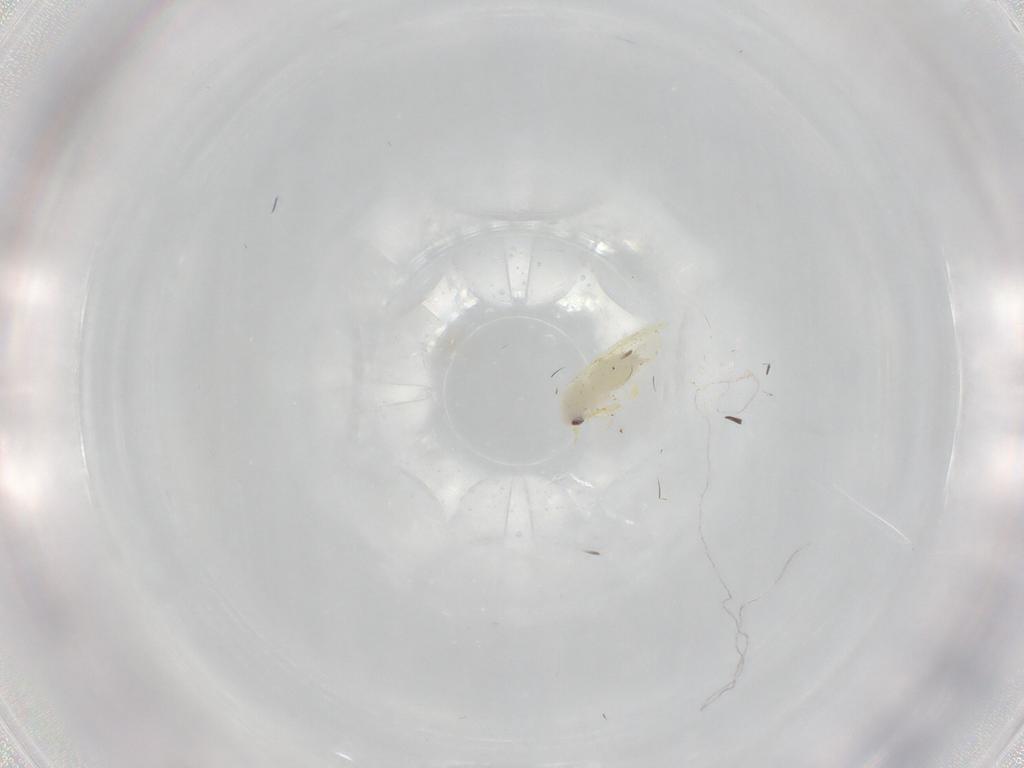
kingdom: Animalia
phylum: Arthropoda
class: Insecta
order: Hemiptera
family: Aleyrodidae
